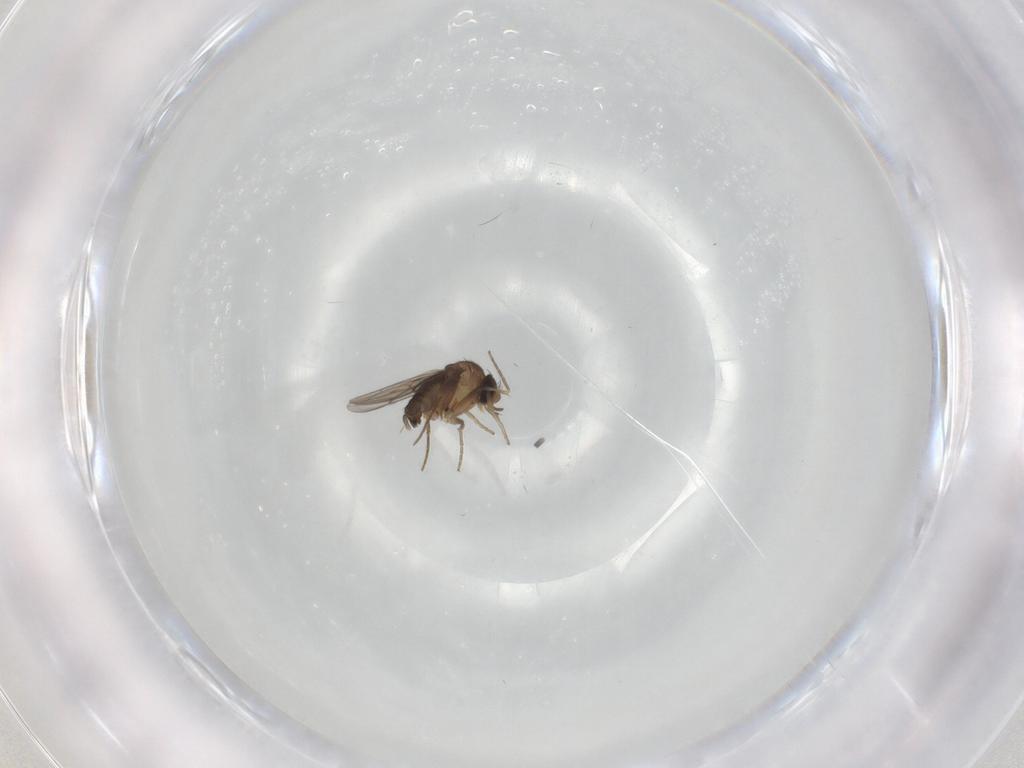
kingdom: Animalia
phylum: Arthropoda
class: Insecta
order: Diptera
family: Phoridae
